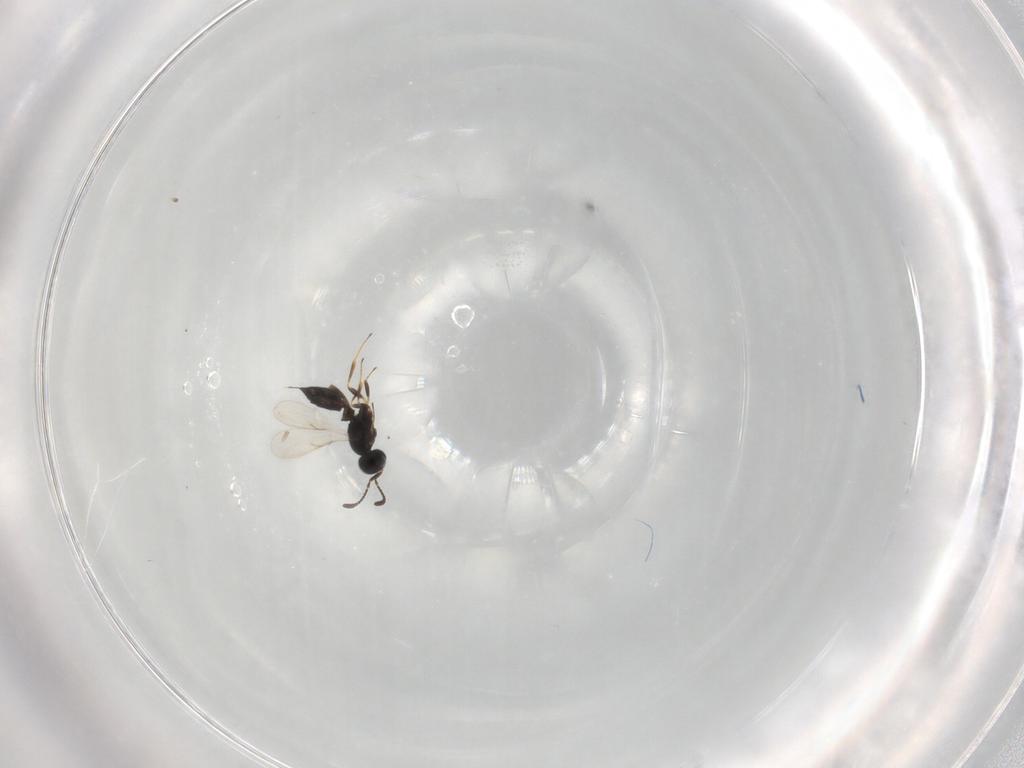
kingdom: Animalia
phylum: Arthropoda
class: Insecta
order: Hymenoptera
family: Scelionidae
